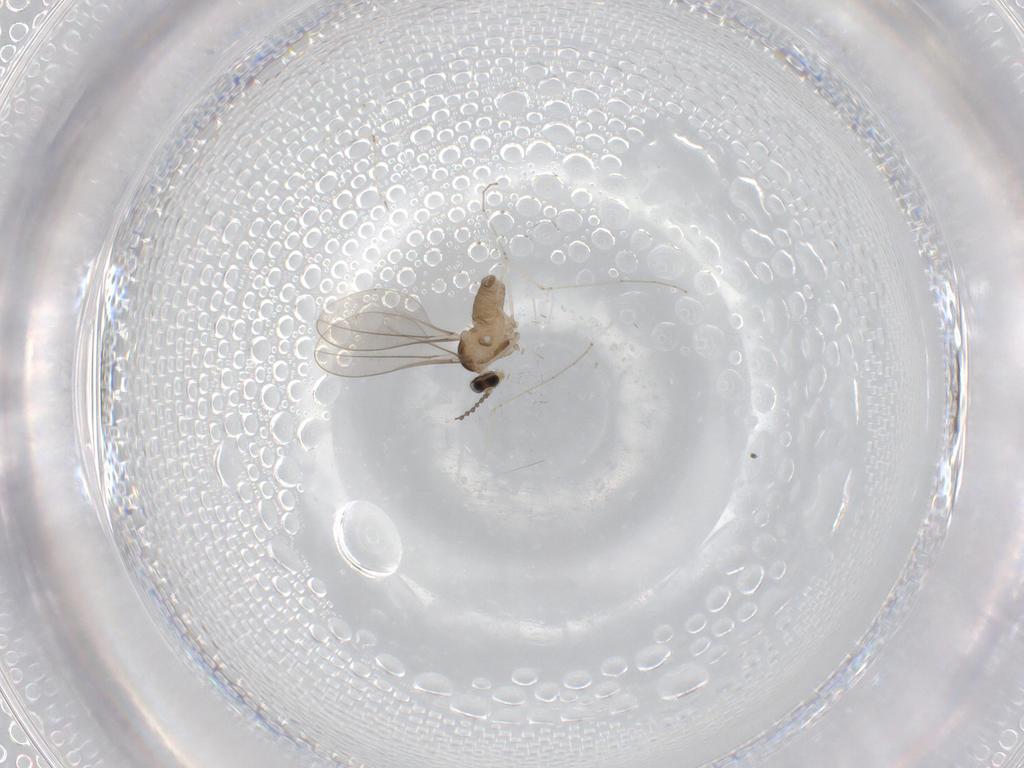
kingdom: Animalia
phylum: Arthropoda
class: Insecta
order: Diptera
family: Cecidomyiidae
